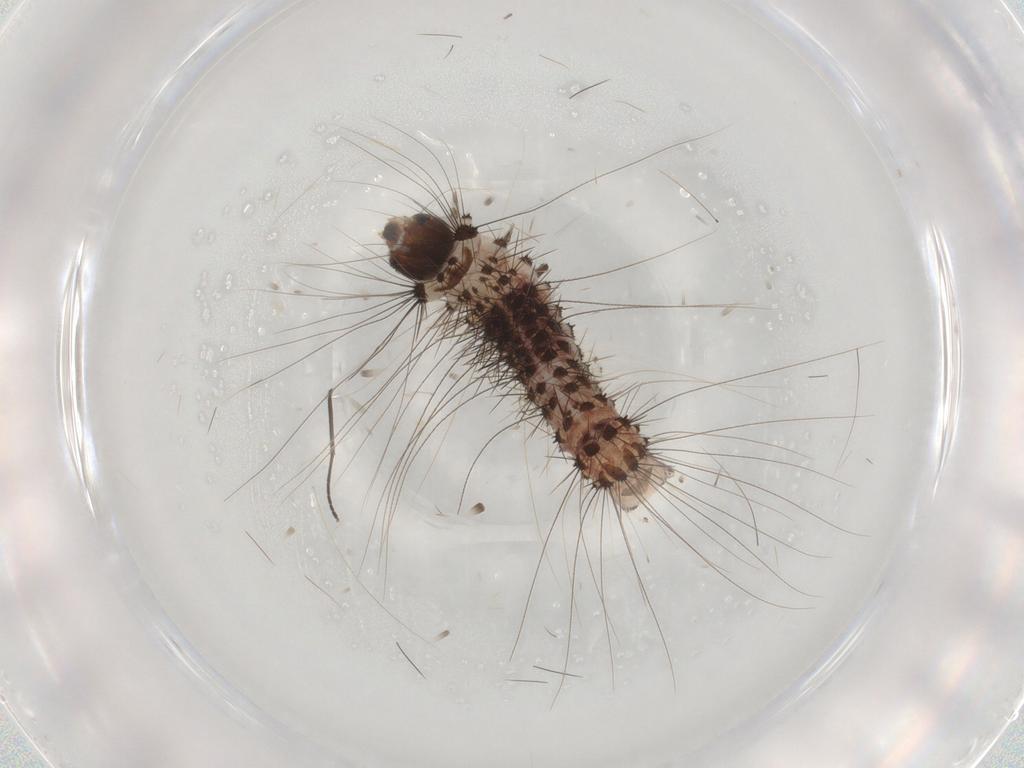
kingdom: Animalia
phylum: Arthropoda
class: Insecta
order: Lepidoptera
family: Scythrididae
